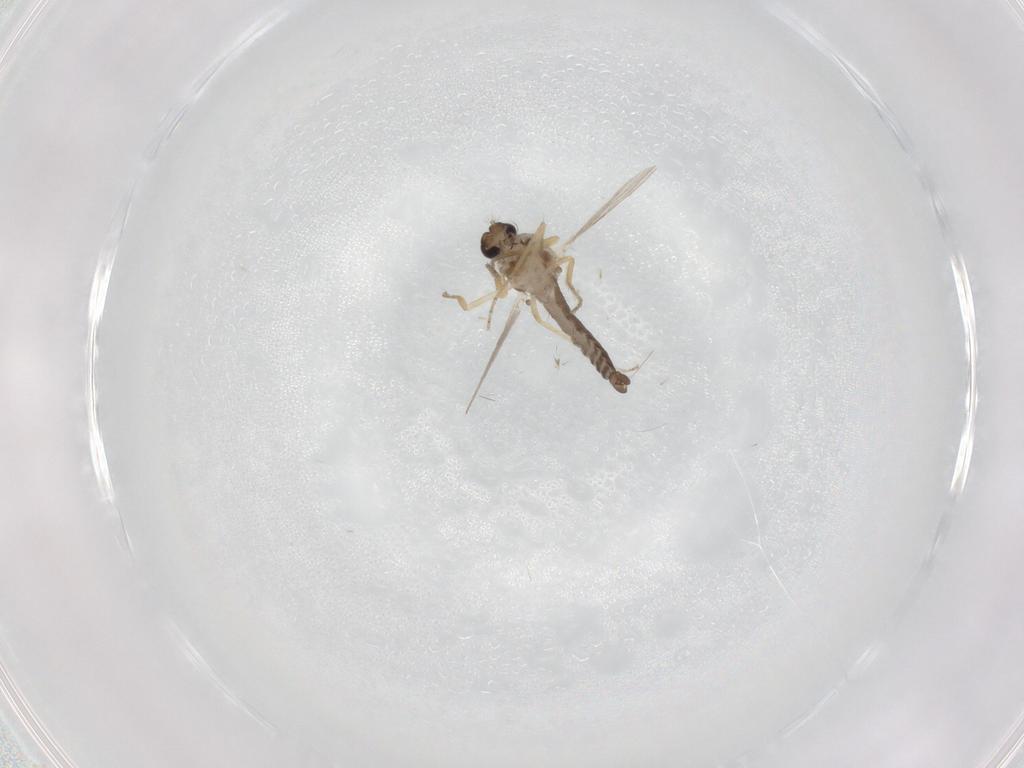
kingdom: Animalia
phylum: Arthropoda
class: Insecta
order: Diptera
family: Ceratopogonidae
